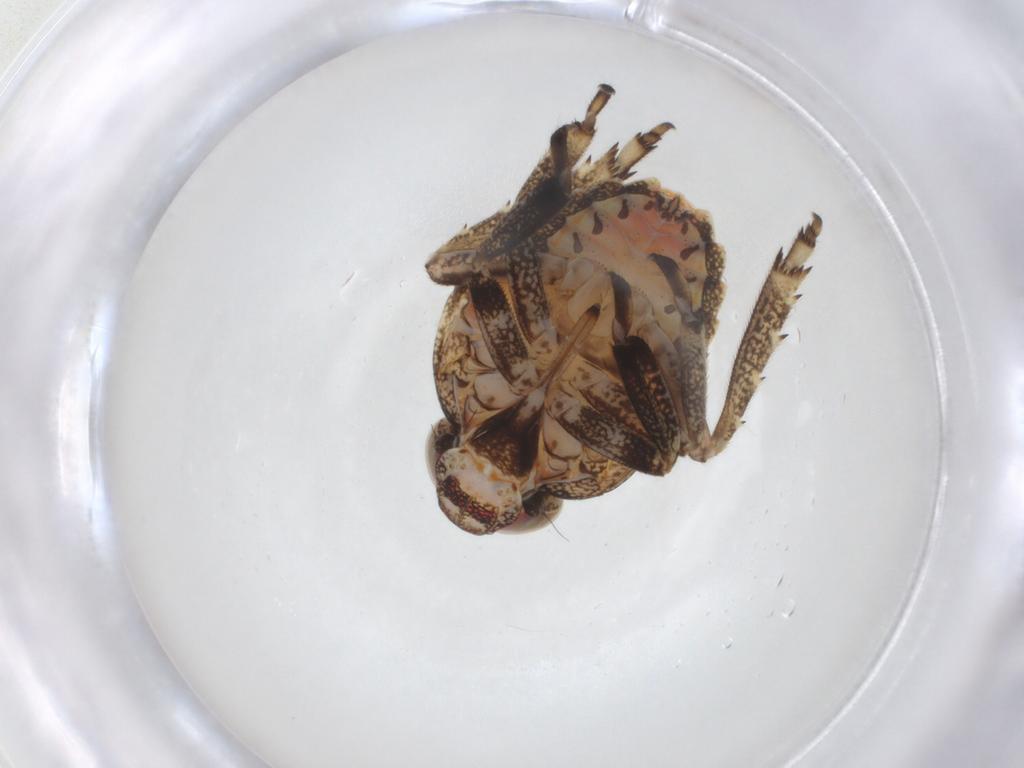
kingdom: Animalia
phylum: Arthropoda
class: Insecta
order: Hemiptera
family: Issidae
